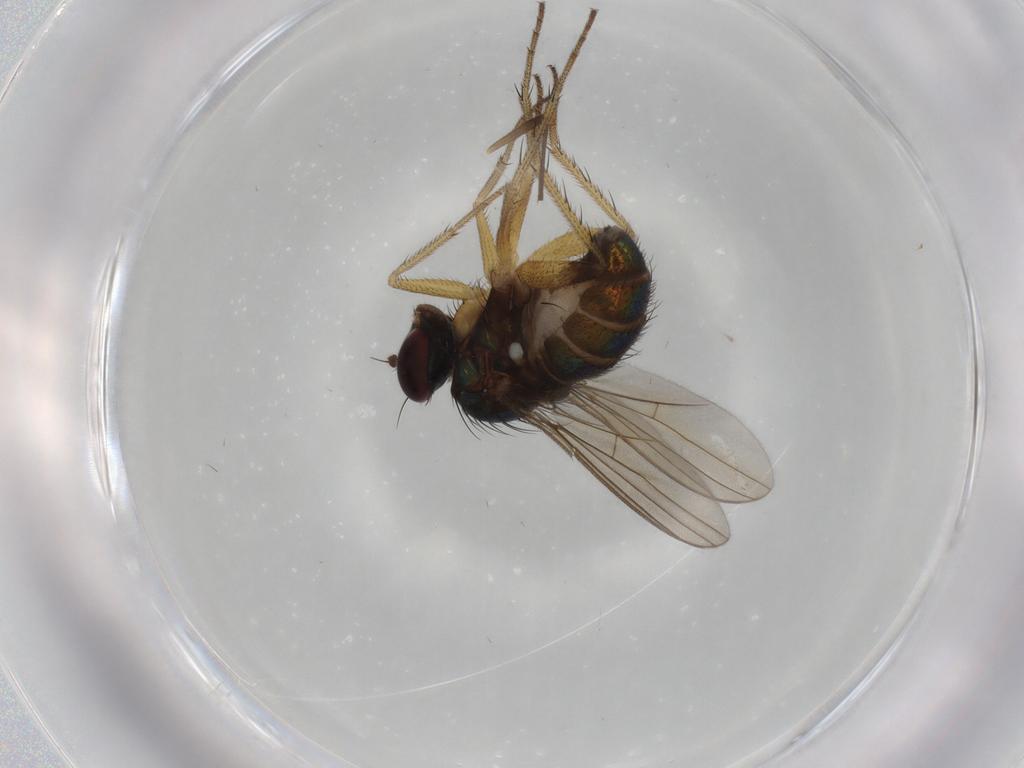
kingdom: Animalia
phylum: Arthropoda
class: Insecta
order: Diptera
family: Dolichopodidae
